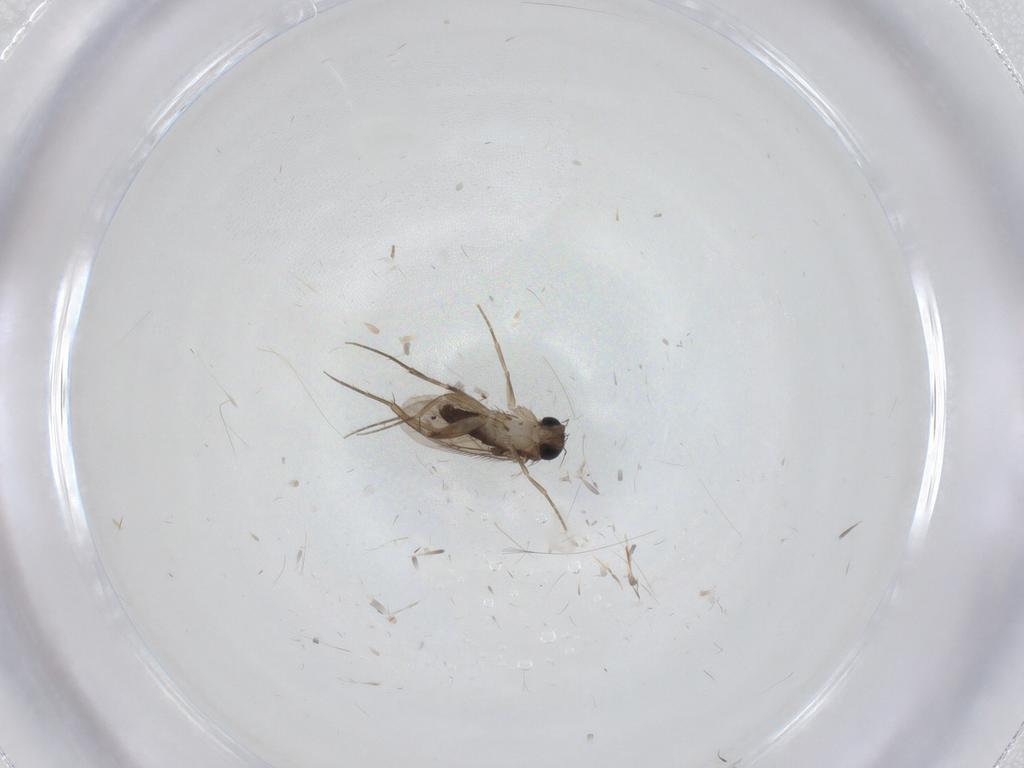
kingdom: Animalia
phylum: Arthropoda
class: Insecta
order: Diptera
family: Phoridae
